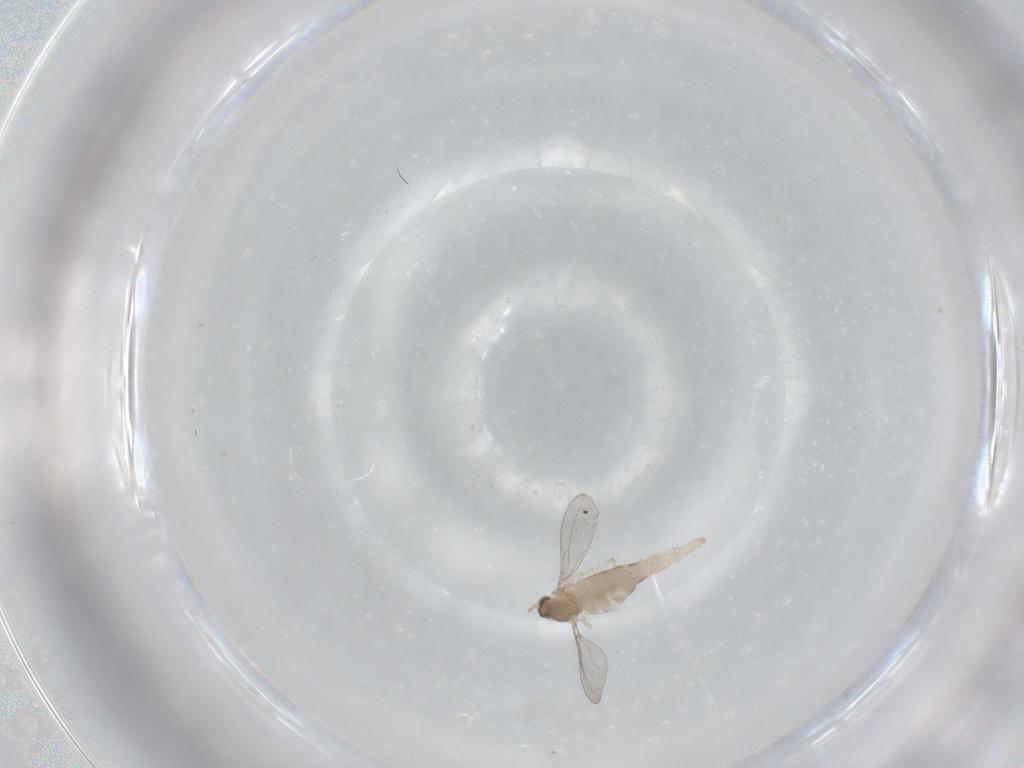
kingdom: Animalia
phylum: Arthropoda
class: Insecta
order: Diptera
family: Cecidomyiidae
